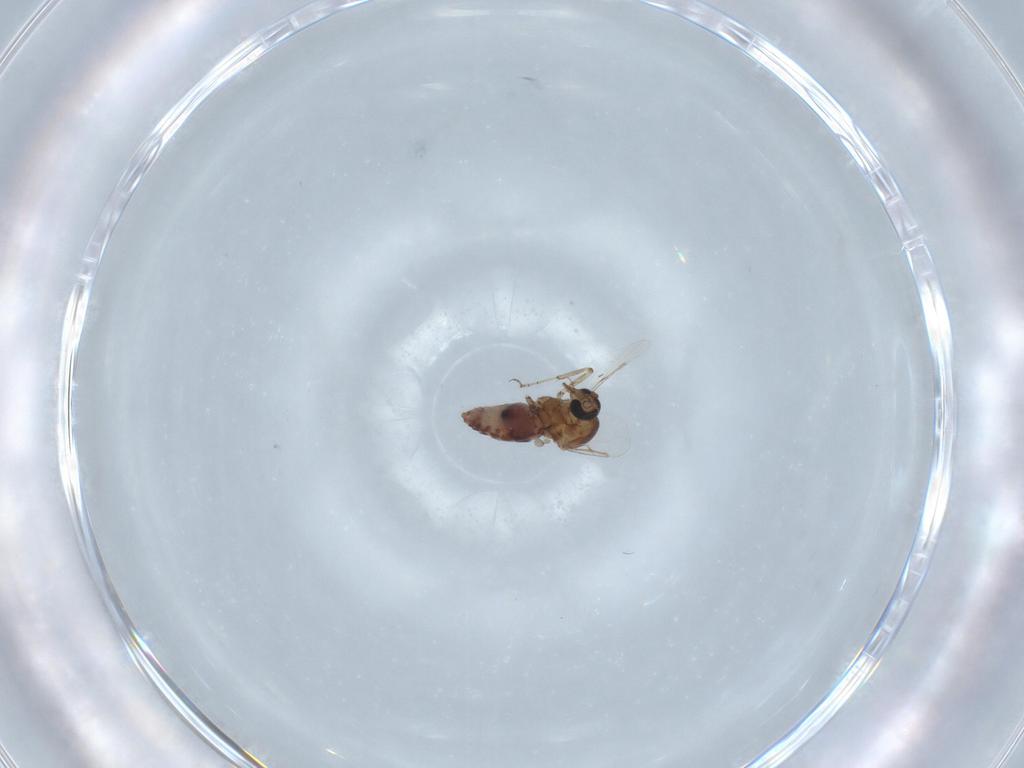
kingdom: Animalia
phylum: Arthropoda
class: Insecta
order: Diptera
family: Ceratopogonidae
